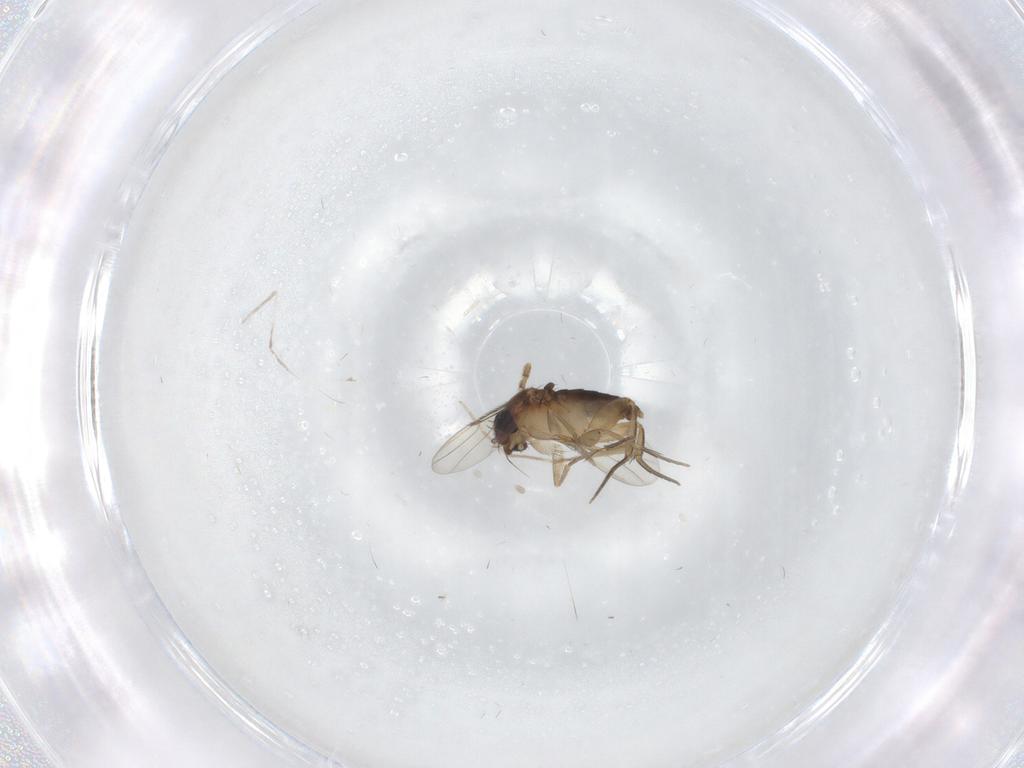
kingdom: Animalia
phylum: Arthropoda
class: Insecta
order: Diptera
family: Phoridae
